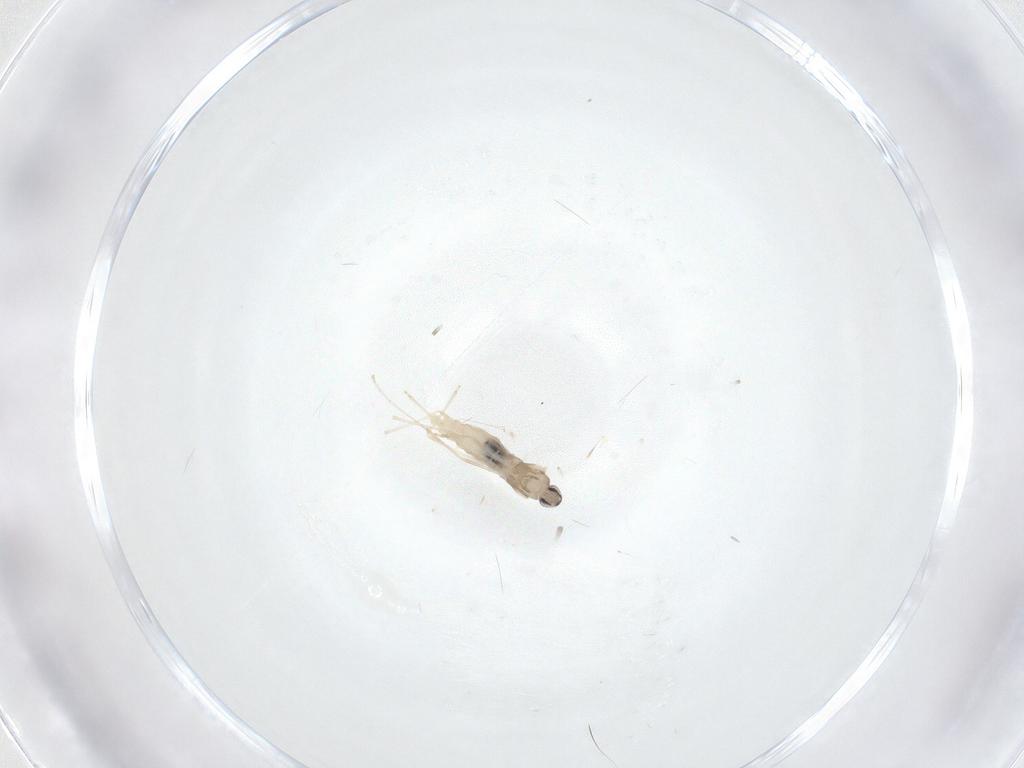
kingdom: Animalia
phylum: Arthropoda
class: Insecta
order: Diptera
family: Cecidomyiidae
